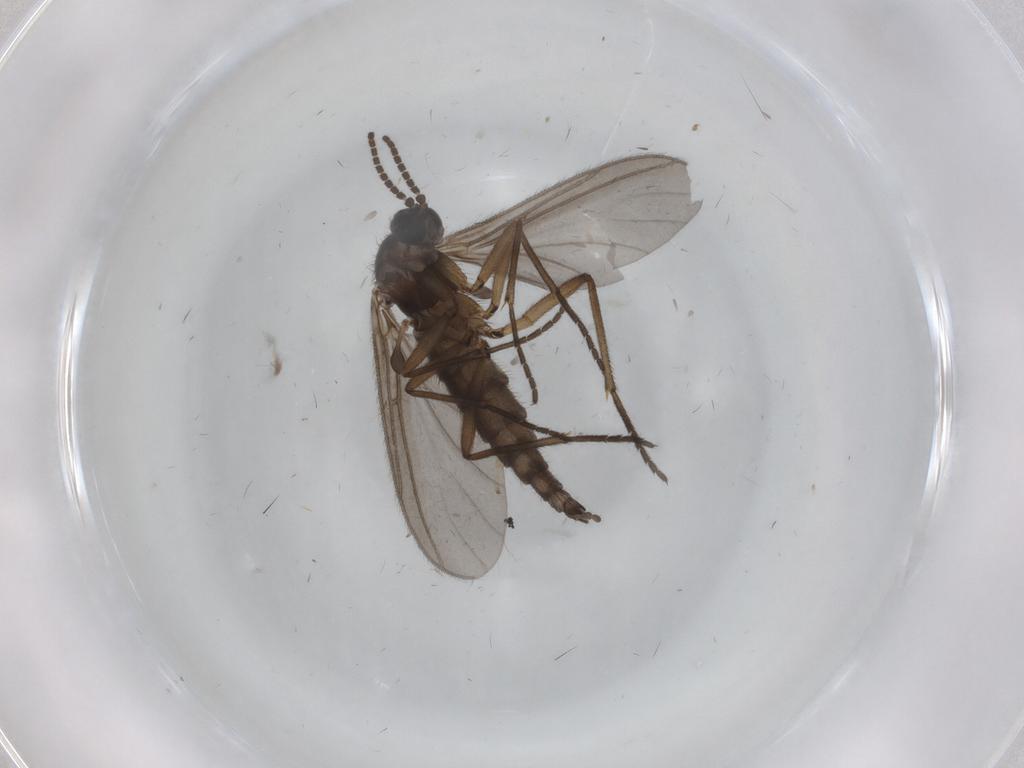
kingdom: Animalia
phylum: Arthropoda
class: Insecta
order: Diptera
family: Sciaridae
